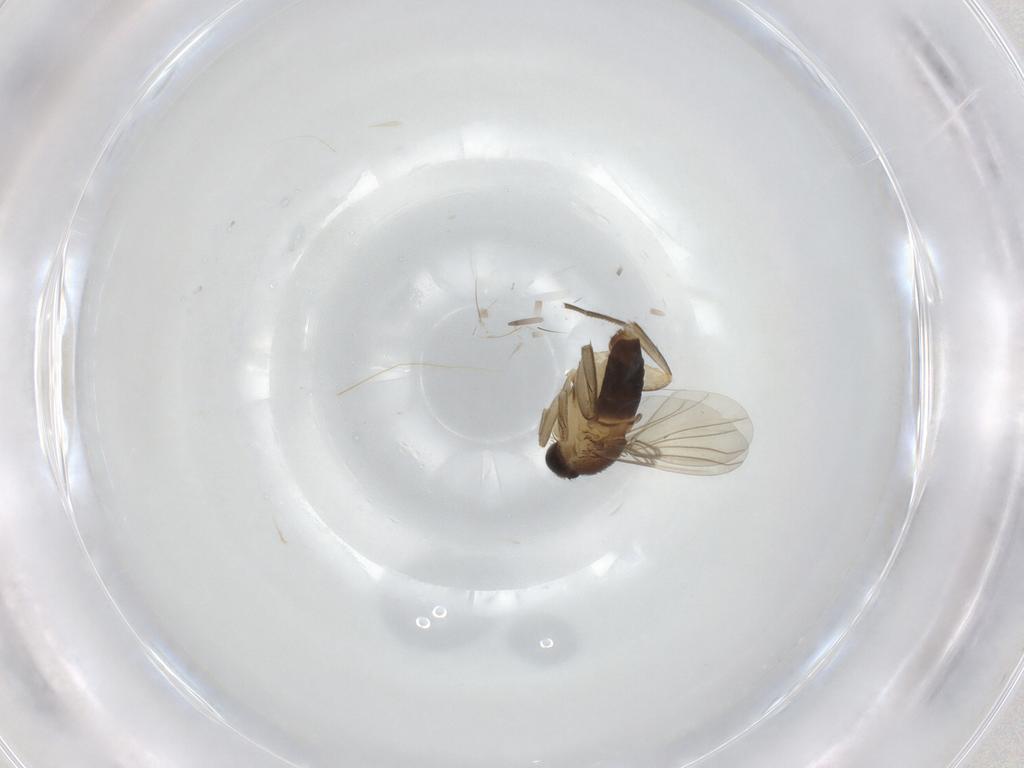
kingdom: Animalia
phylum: Arthropoda
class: Insecta
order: Diptera
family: Phoridae
